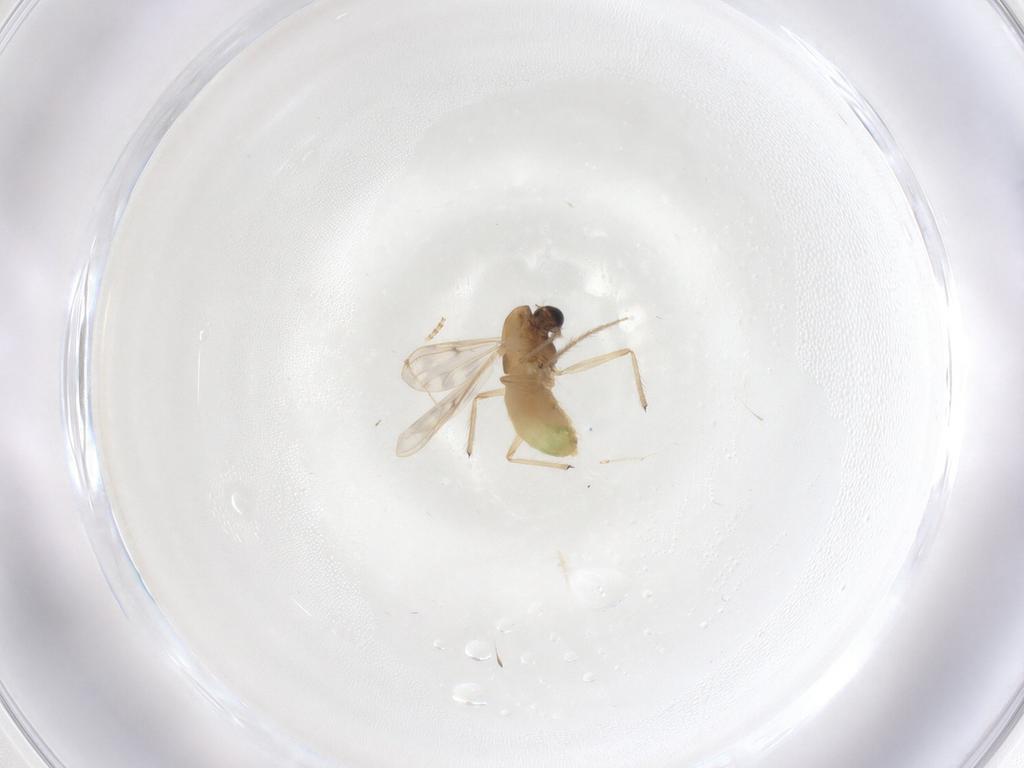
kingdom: Animalia
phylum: Arthropoda
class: Insecta
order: Diptera
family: Chironomidae
